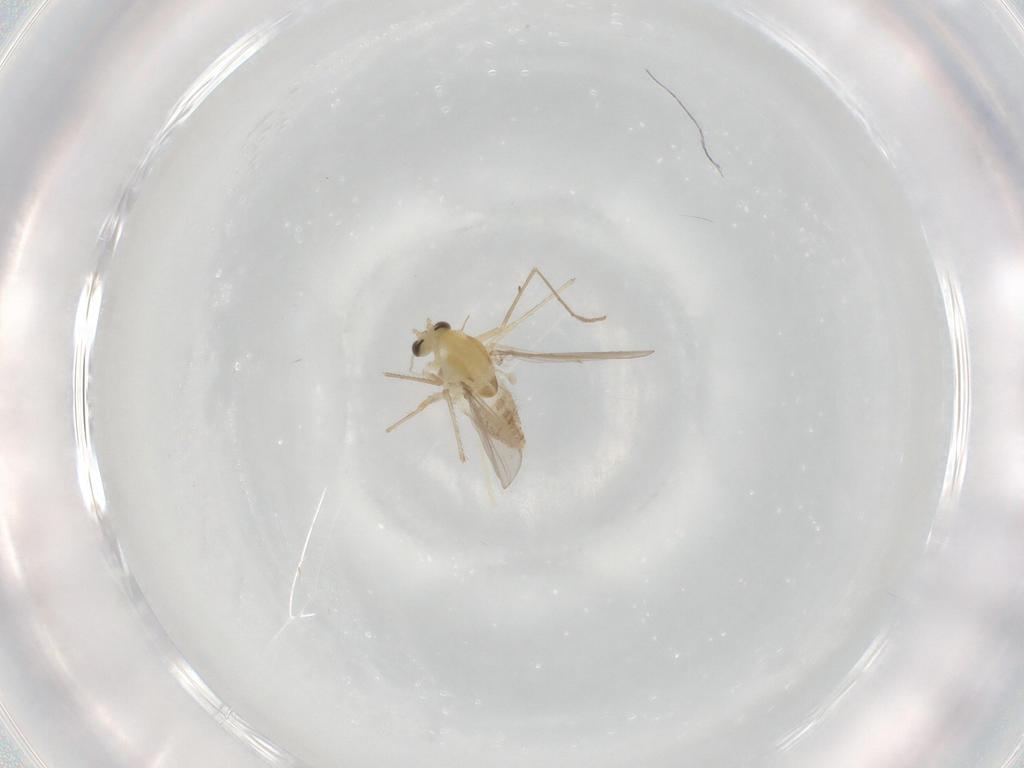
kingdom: Animalia
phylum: Arthropoda
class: Insecta
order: Diptera
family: Chironomidae
